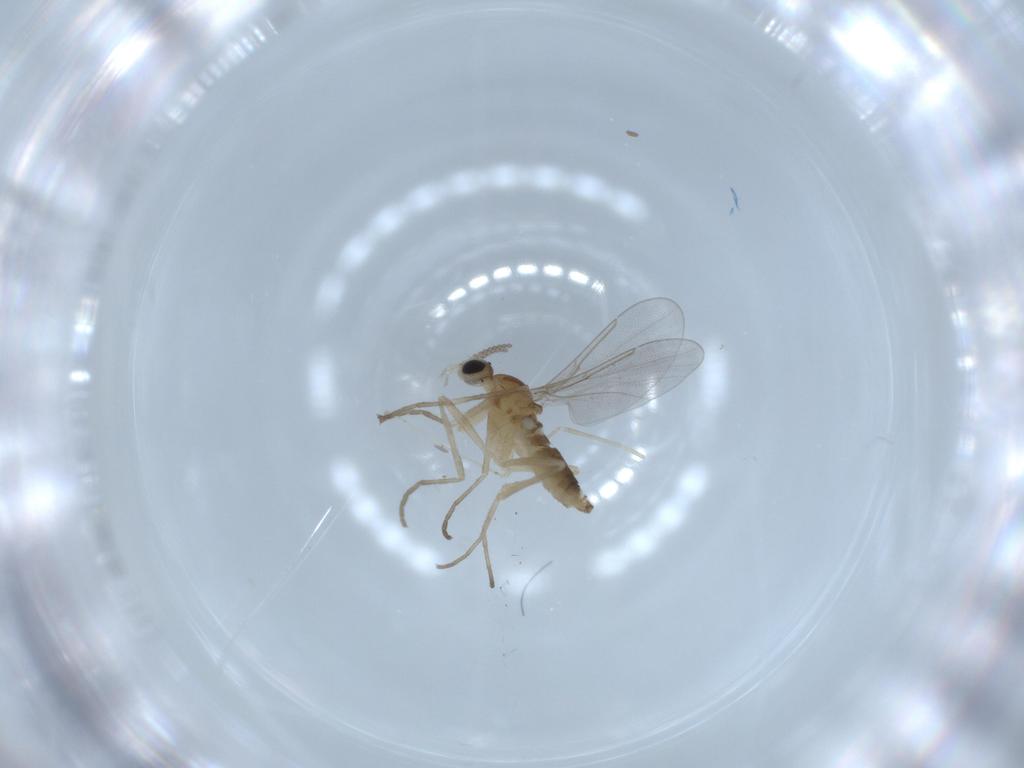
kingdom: Animalia
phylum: Arthropoda
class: Insecta
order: Diptera
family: Cecidomyiidae
